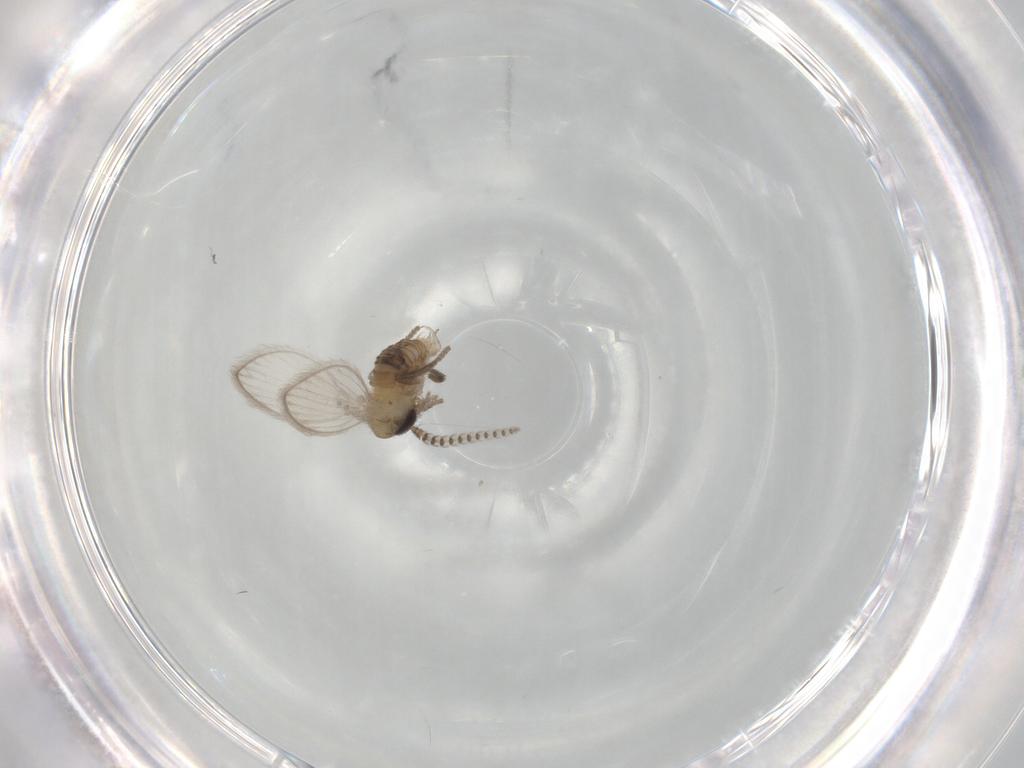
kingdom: Animalia
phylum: Arthropoda
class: Insecta
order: Diptera
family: Psychodidae
